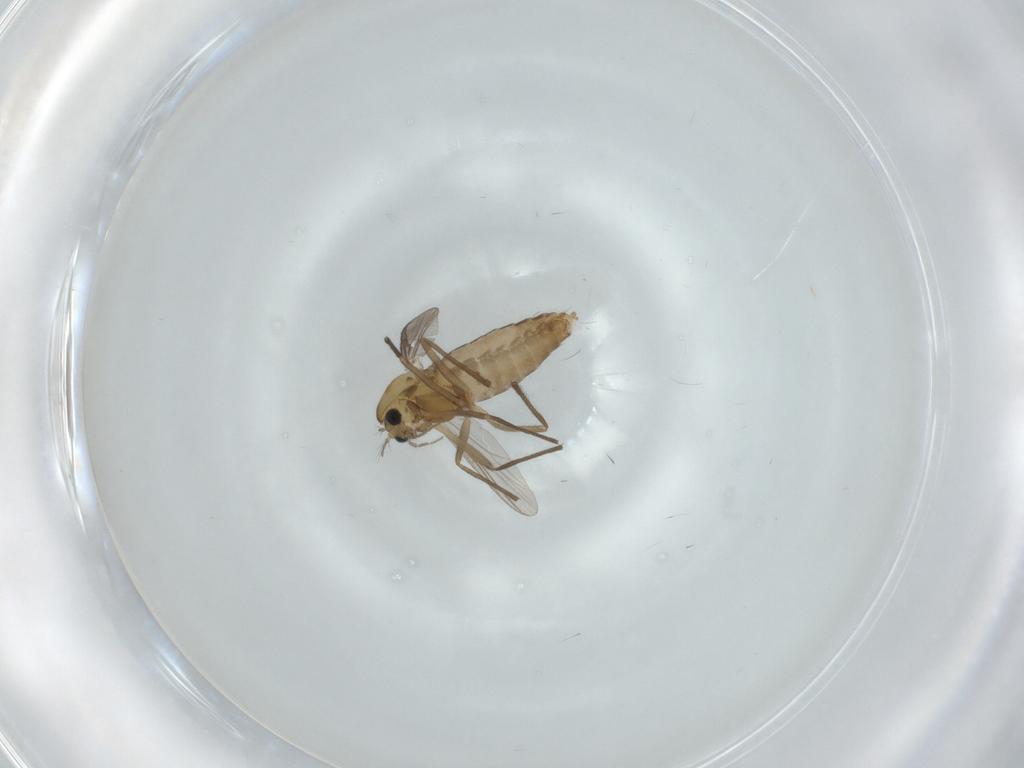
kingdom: Animalia
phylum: Arthropoda
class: Insecta
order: Diptera
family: Chironomidae
